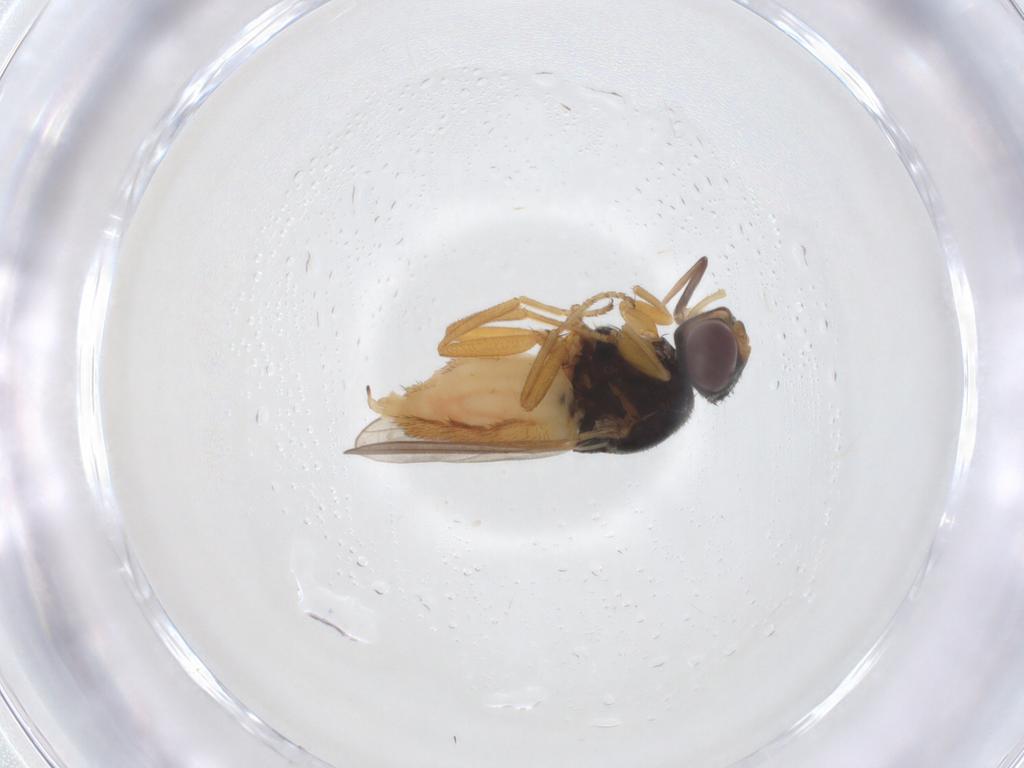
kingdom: Animalia
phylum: Arthropoda
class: Insecta
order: Diptera
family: Chloropidae
